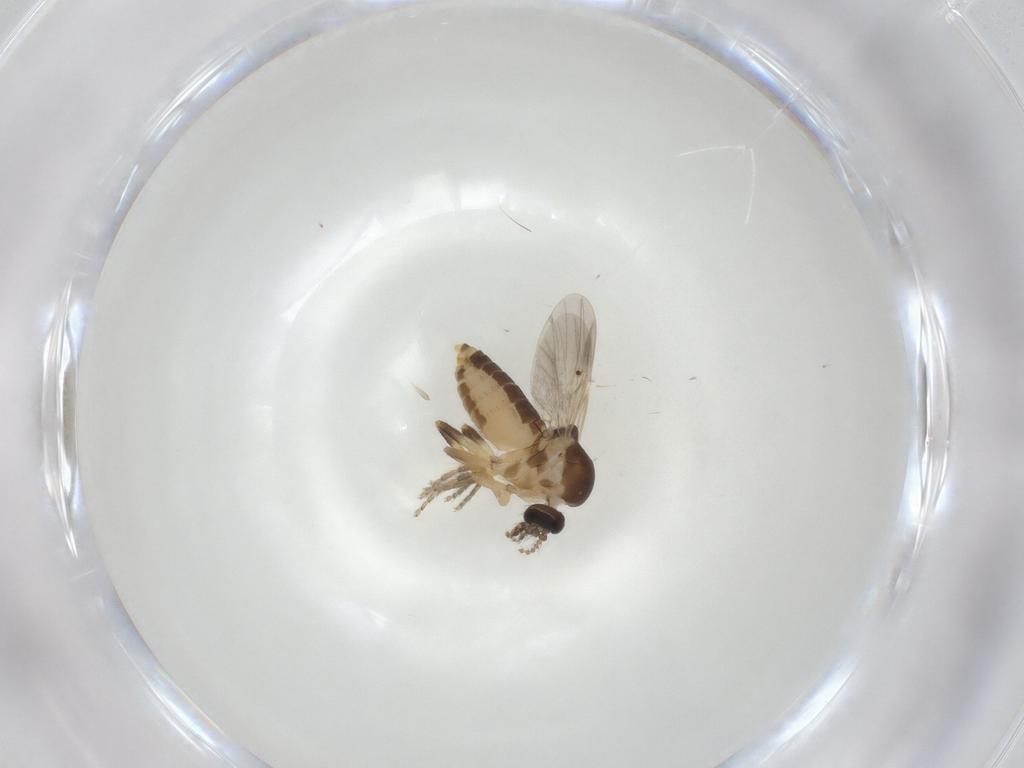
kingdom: Animalia
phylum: Arthropoda
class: Insecta
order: Diptera
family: Ceratopogonidae
